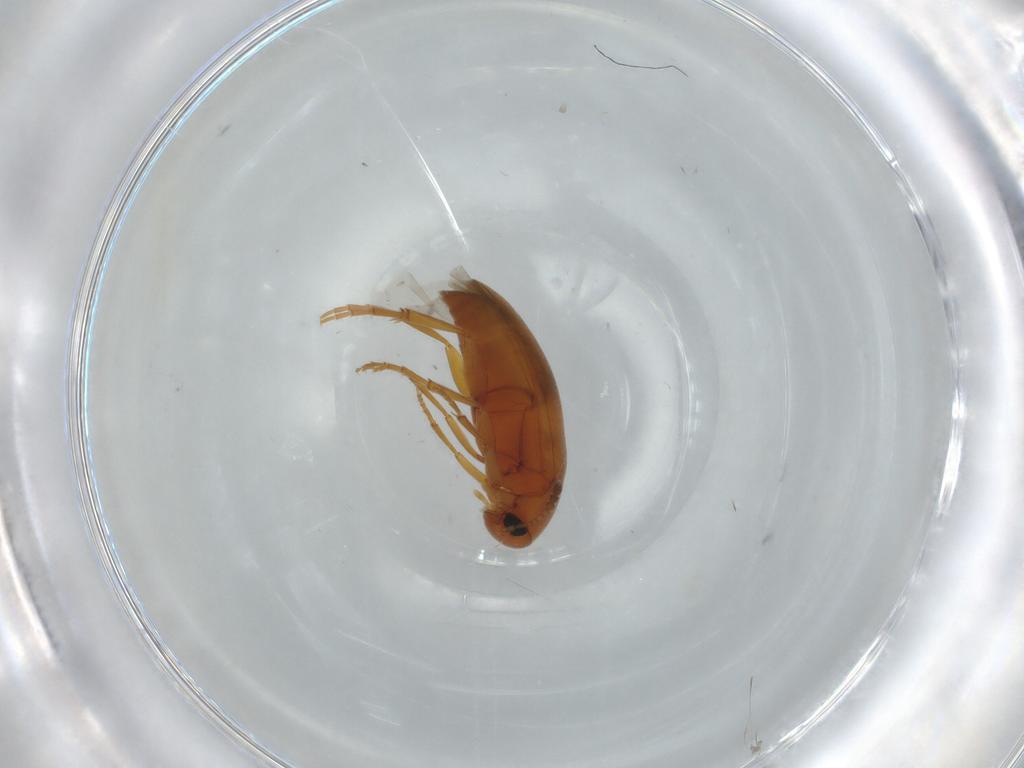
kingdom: Animalia
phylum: Arthropoda
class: Insecta
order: Coleoptera
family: Scraptiidae
